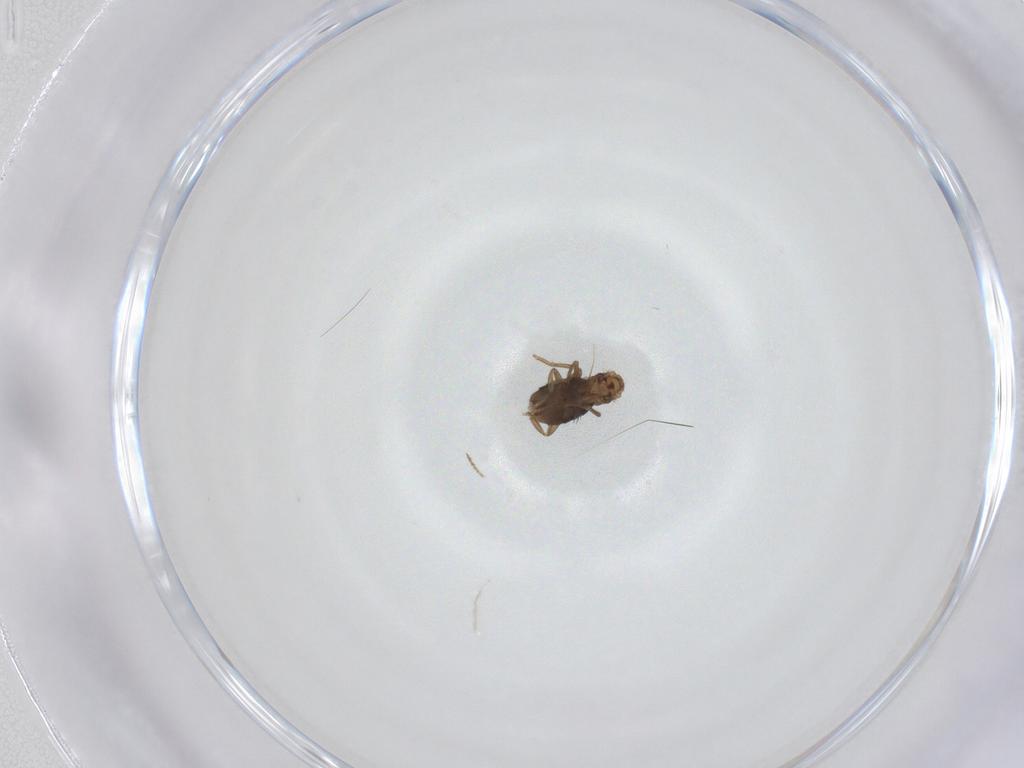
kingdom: Animalia
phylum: Arthropoda
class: Insecta
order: Diptera
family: Phoridae
